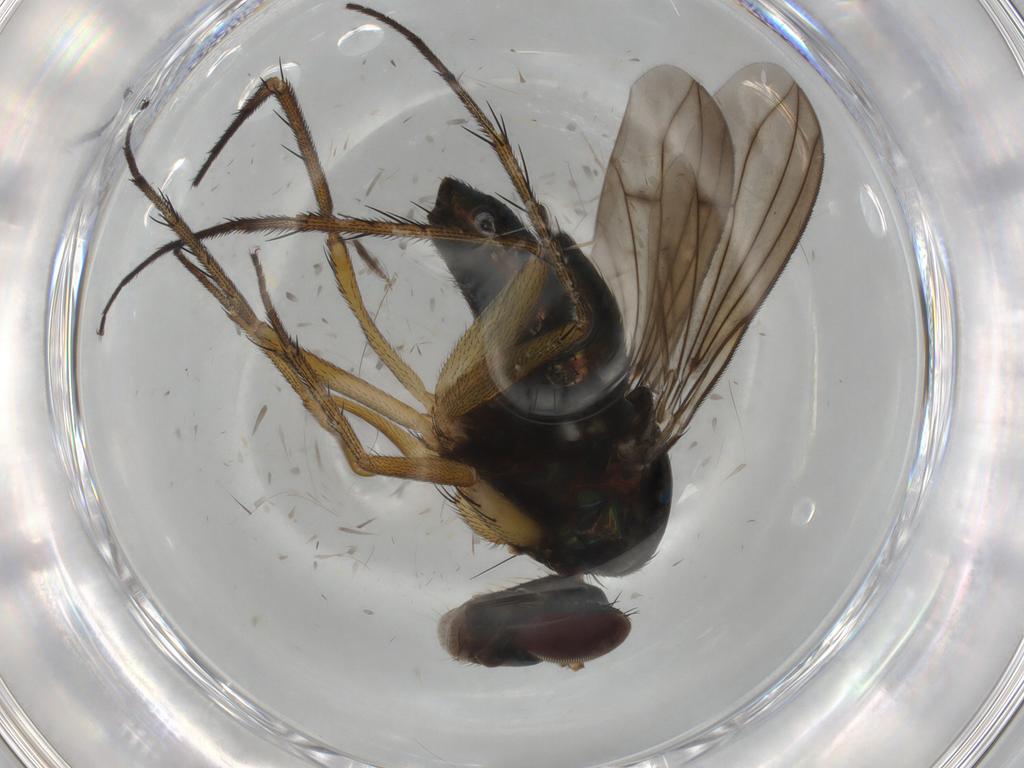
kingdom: Animalia
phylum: Arthropoda
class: Insecta
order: Diptera
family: Dolichopodidae
